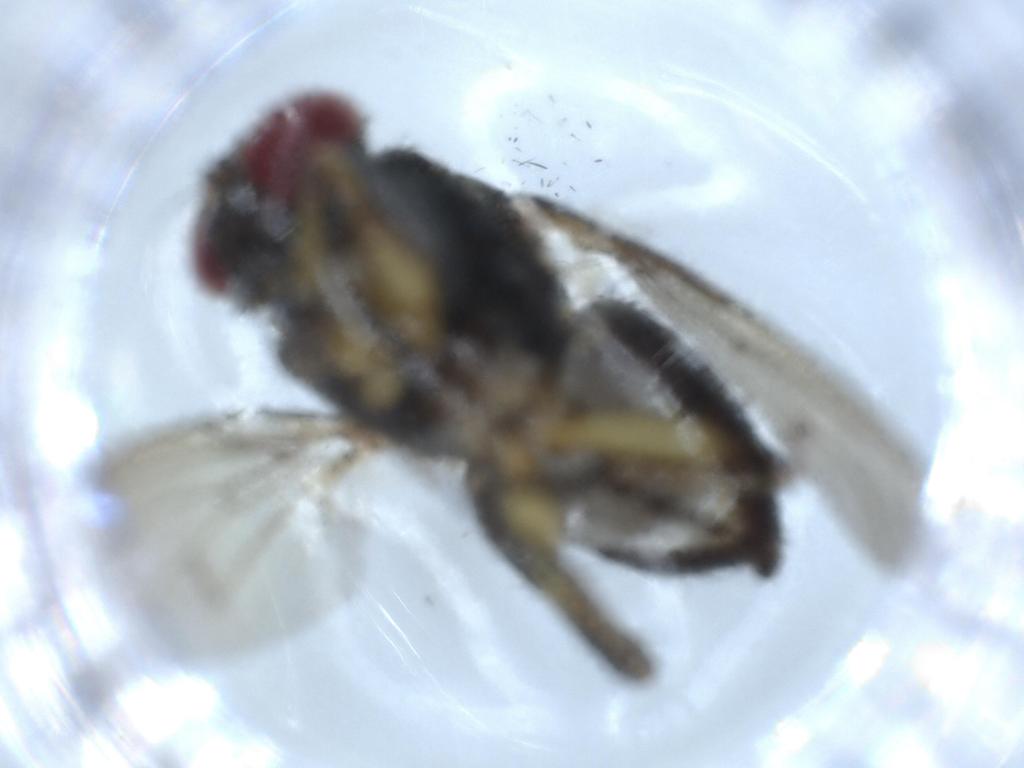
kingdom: Animalia
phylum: Arthropoda
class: Insecta
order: Diptera
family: Muscidae
